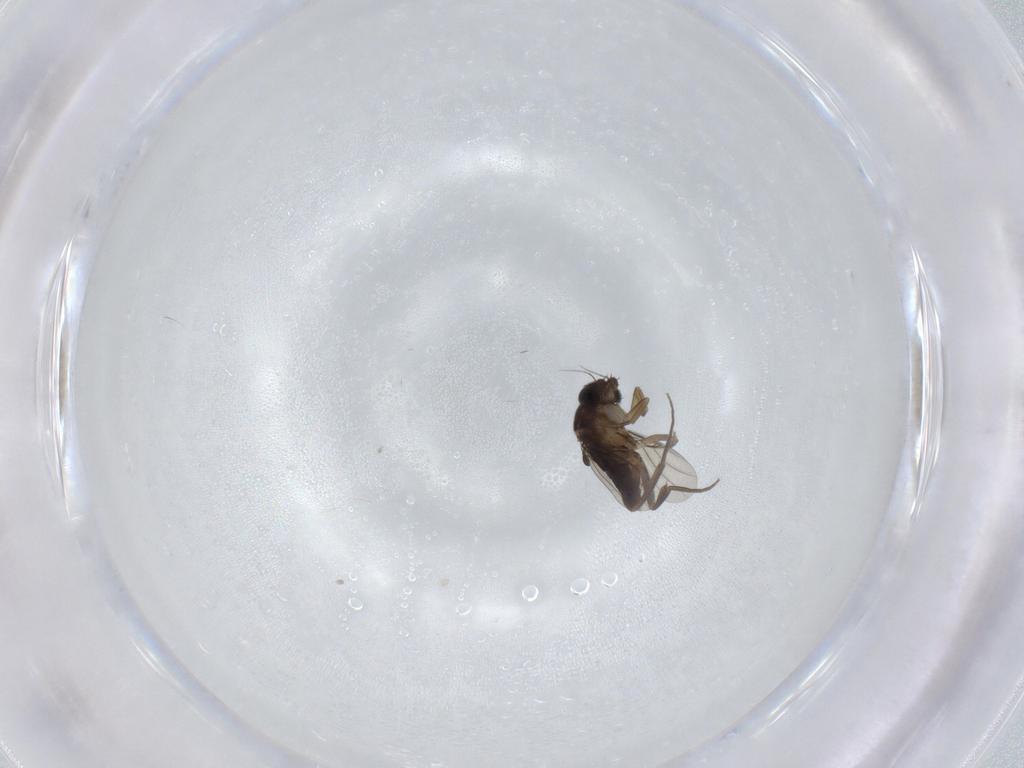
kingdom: Animalia
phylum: Arthropoda
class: Insecta
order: Diptera
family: Phoridae
